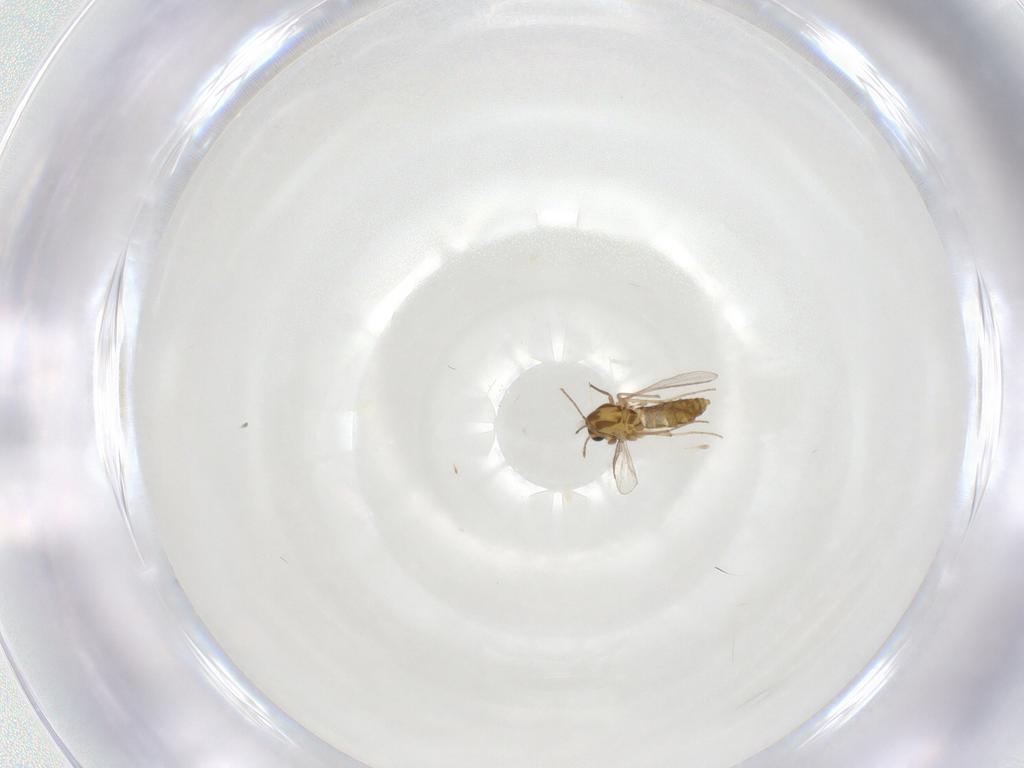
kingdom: Animalia
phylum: Arthropoda
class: Insecta
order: Diptera
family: Chironomidae
